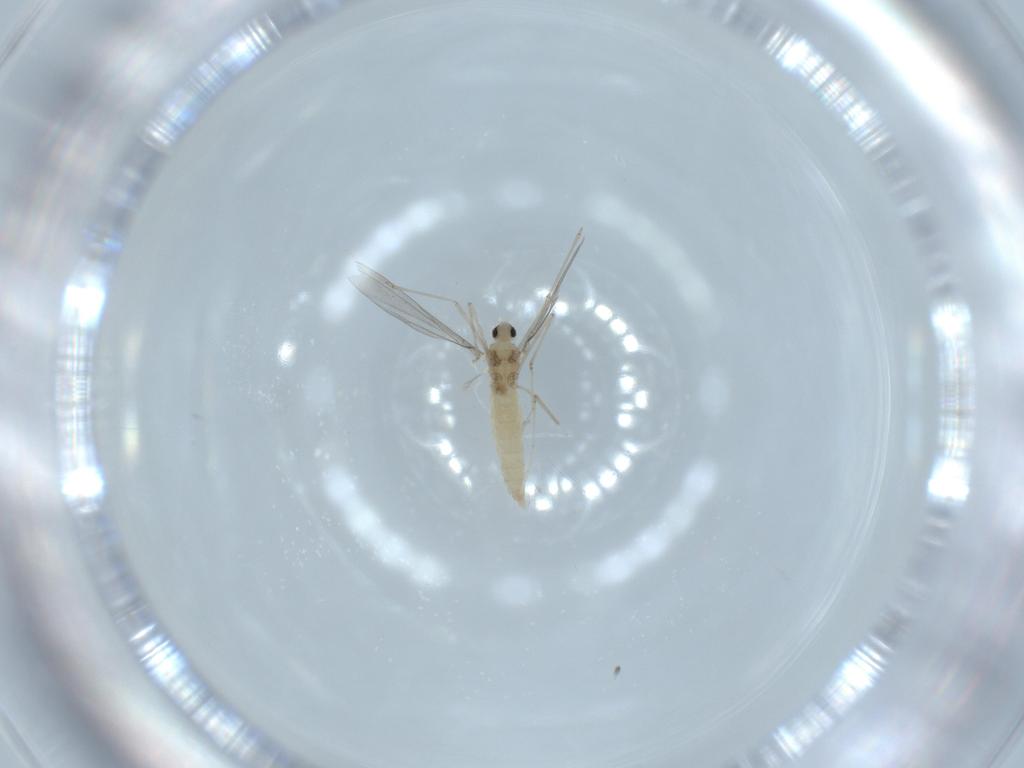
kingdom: Animalia
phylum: Arthropoda
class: Insecta
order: Diptera
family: Cecidomyiidae
